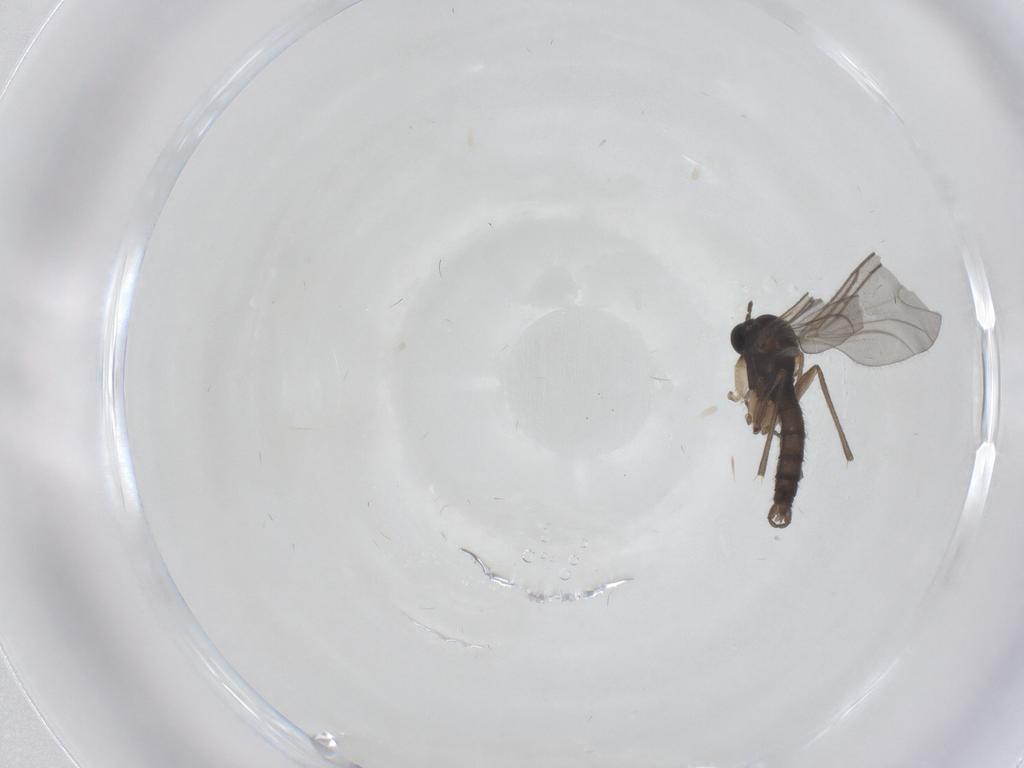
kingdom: Animalia
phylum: Arthropoda
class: Insecta
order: Diptera
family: Sciaridae
